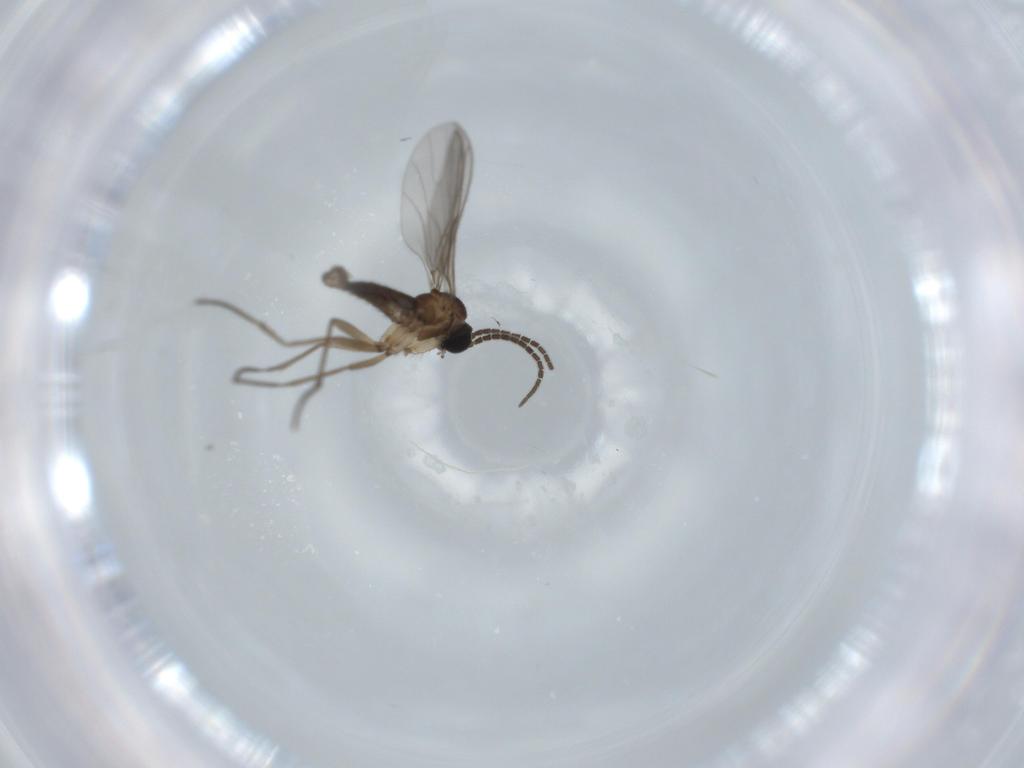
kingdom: Animalia
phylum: Arthropoda
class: Insecta
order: Diptera
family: Sciaridae
